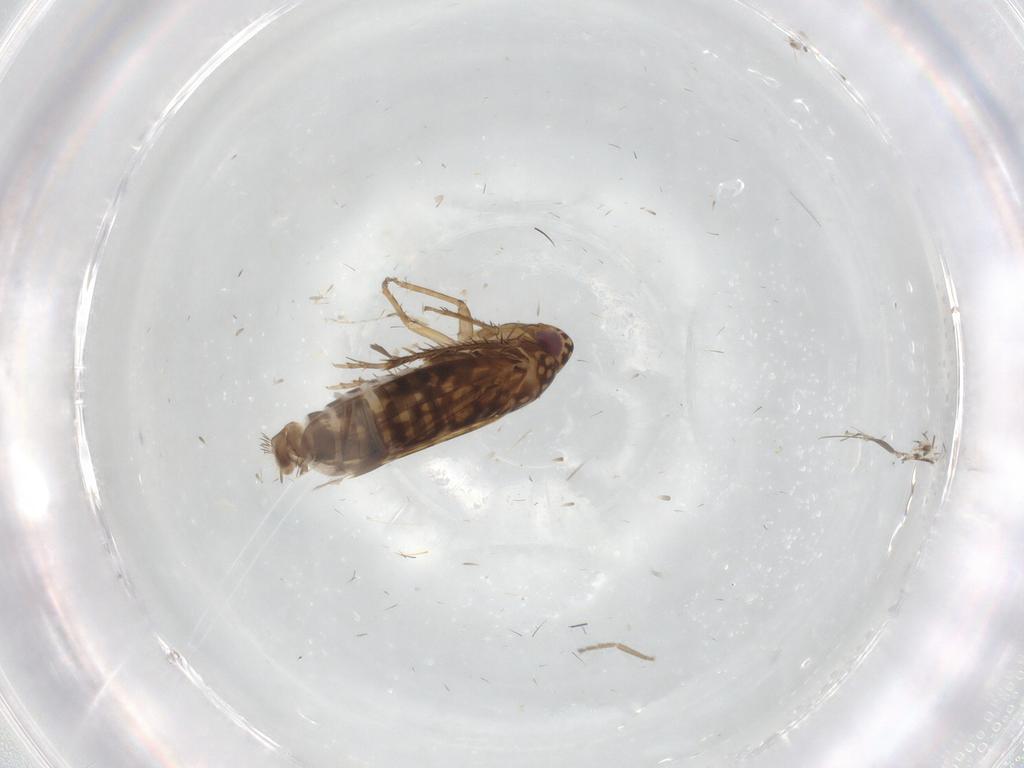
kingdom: Animalia
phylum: Arthropoda
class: Insecta
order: Hemiptera
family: Cicadellidae
